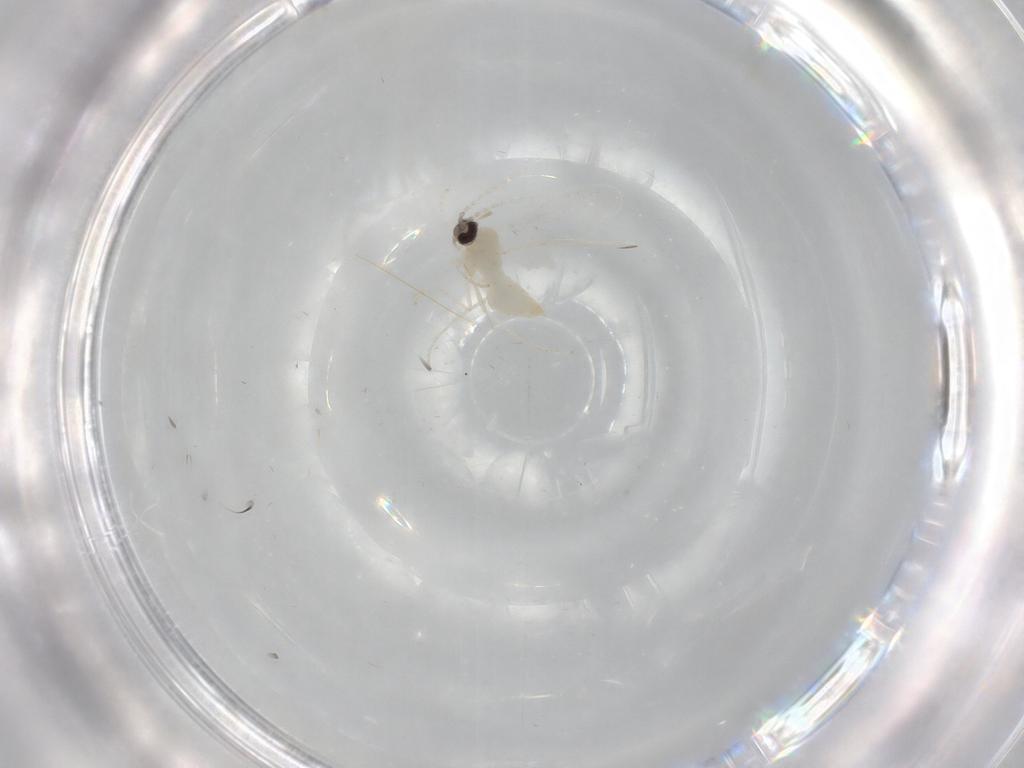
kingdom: Animalia
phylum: Arthropoda
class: Insecta
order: Diptera
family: Cecidomyiidae
